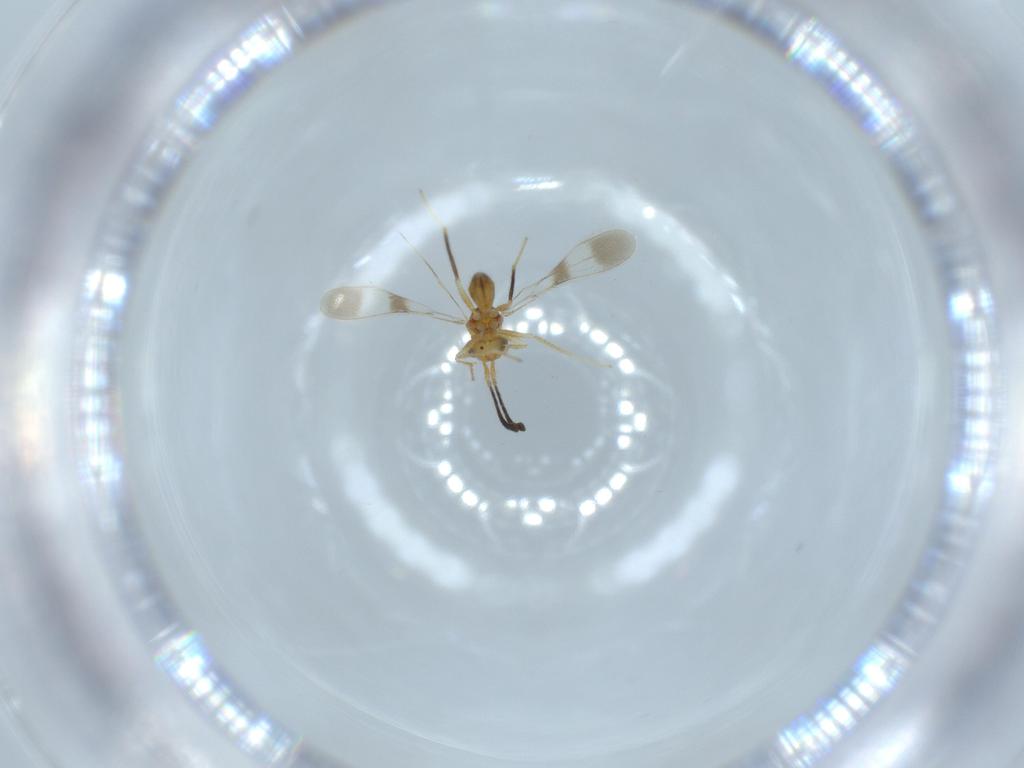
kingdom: Animalia
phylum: Arthropoda
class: Insecta
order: Hymenoptera
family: Mymaridae
